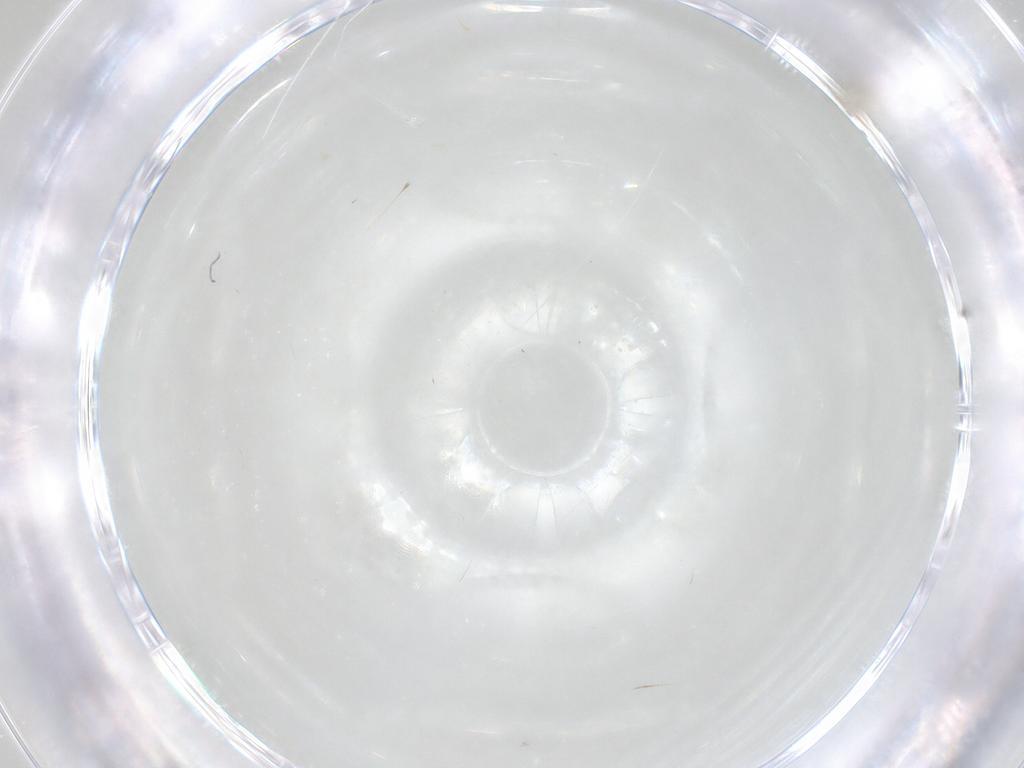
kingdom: Animalia
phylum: Arthropoda
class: Insecta
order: Diptera
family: Cecidomyiidae
